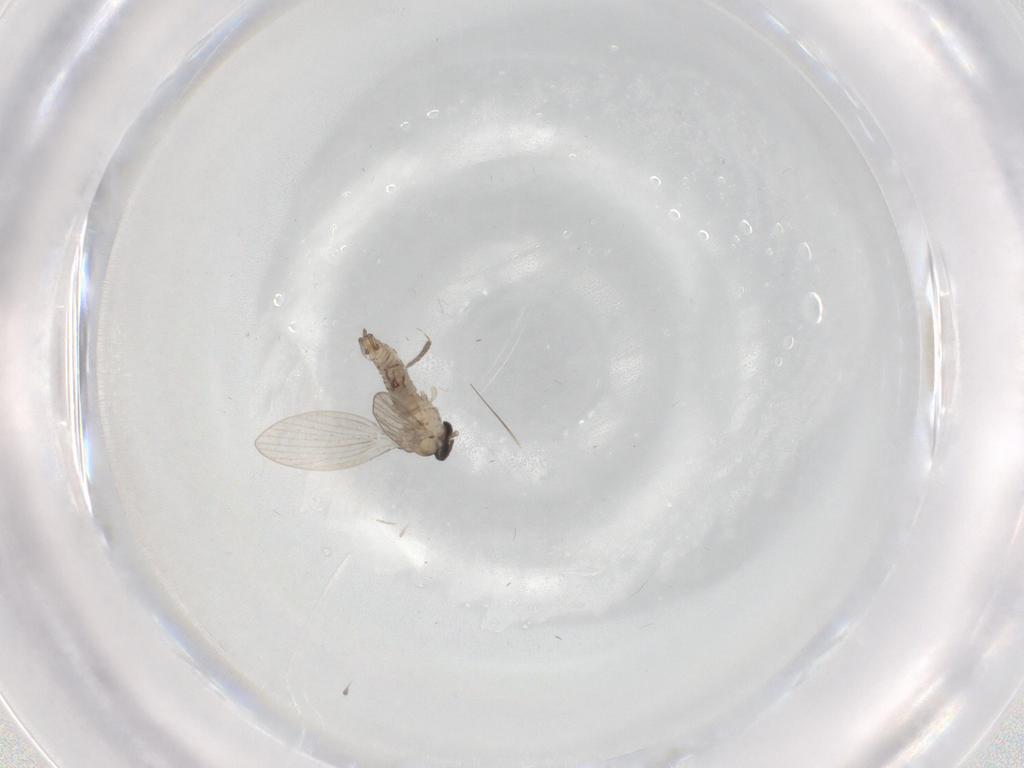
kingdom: Animalia
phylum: Arthropoda
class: Insecta
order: Diptera
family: Psychodidae
